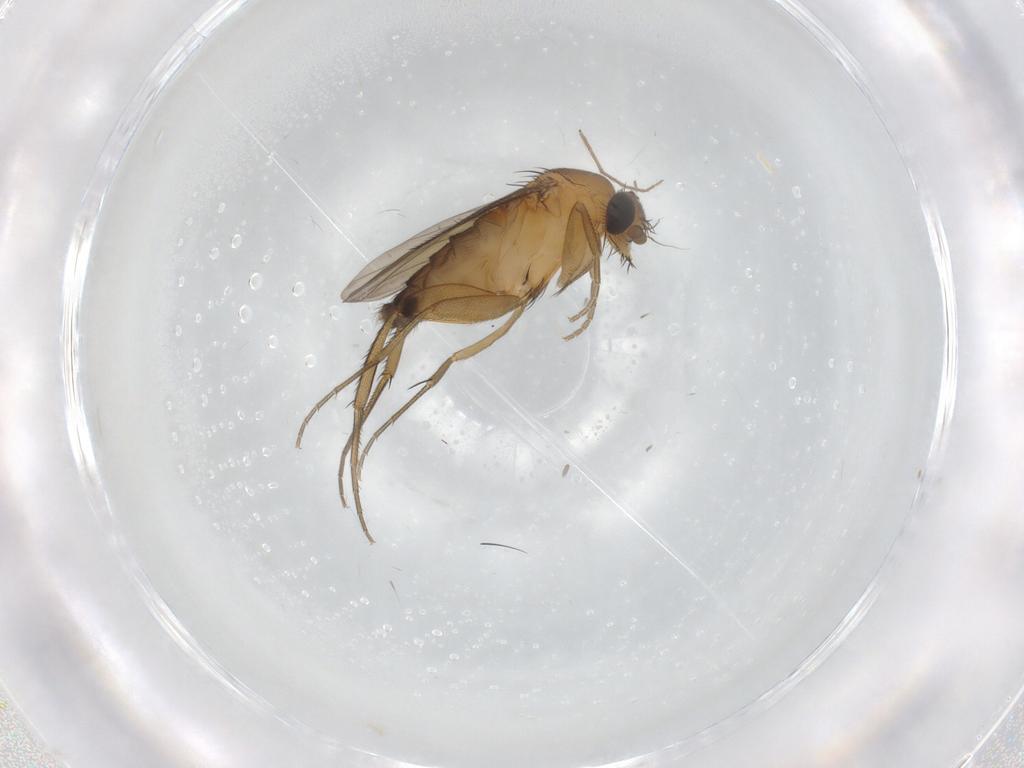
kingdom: Animalia
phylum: Arthropoda
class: Insecta
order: Diptera
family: Phoridae
